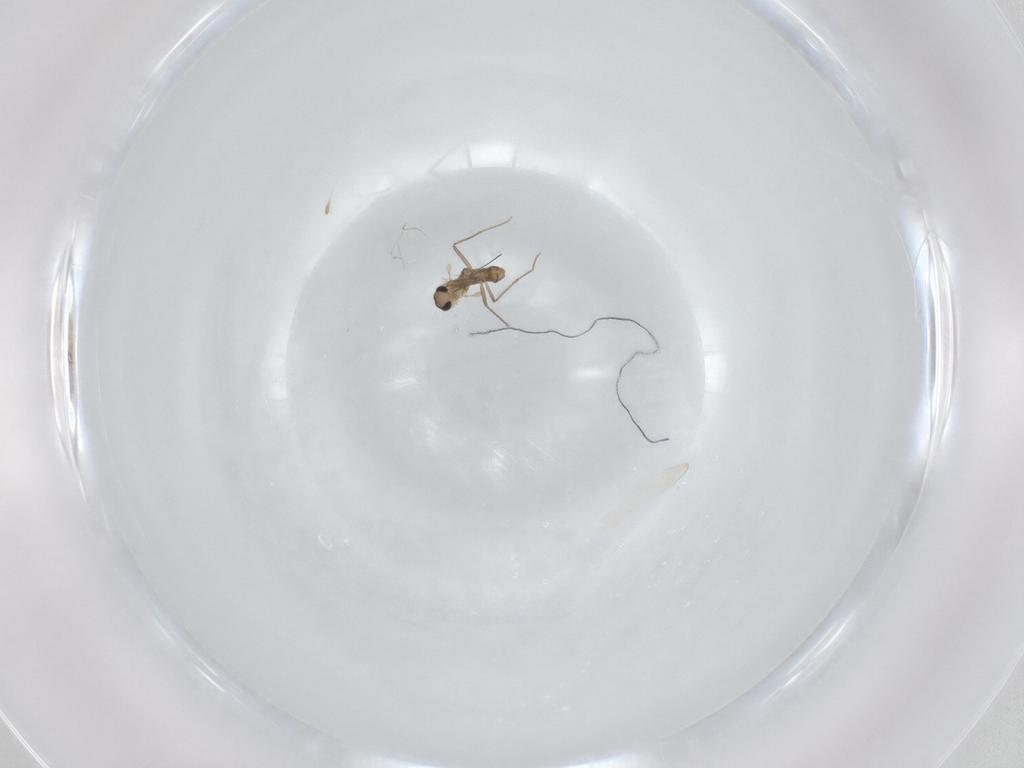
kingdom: Animalia
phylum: Arthropoda
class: Insecta
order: Diptera
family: Chironomidae
